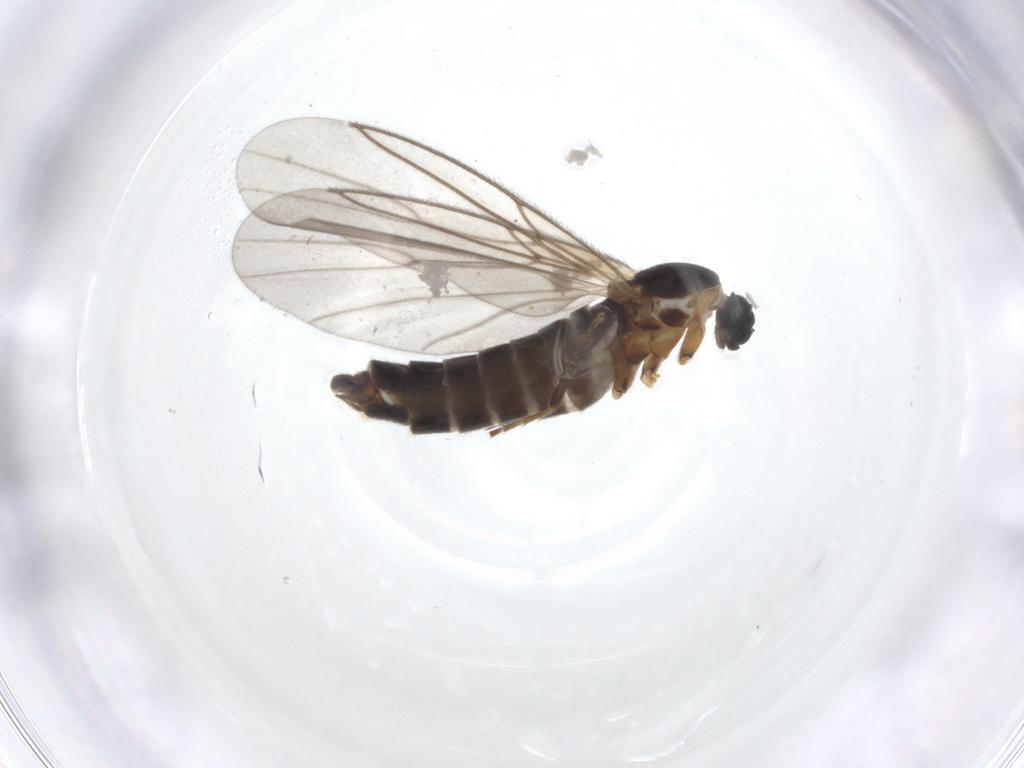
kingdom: Animalia
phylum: Arthropoda
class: Insecta
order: Diptera
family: Scatopsidae
